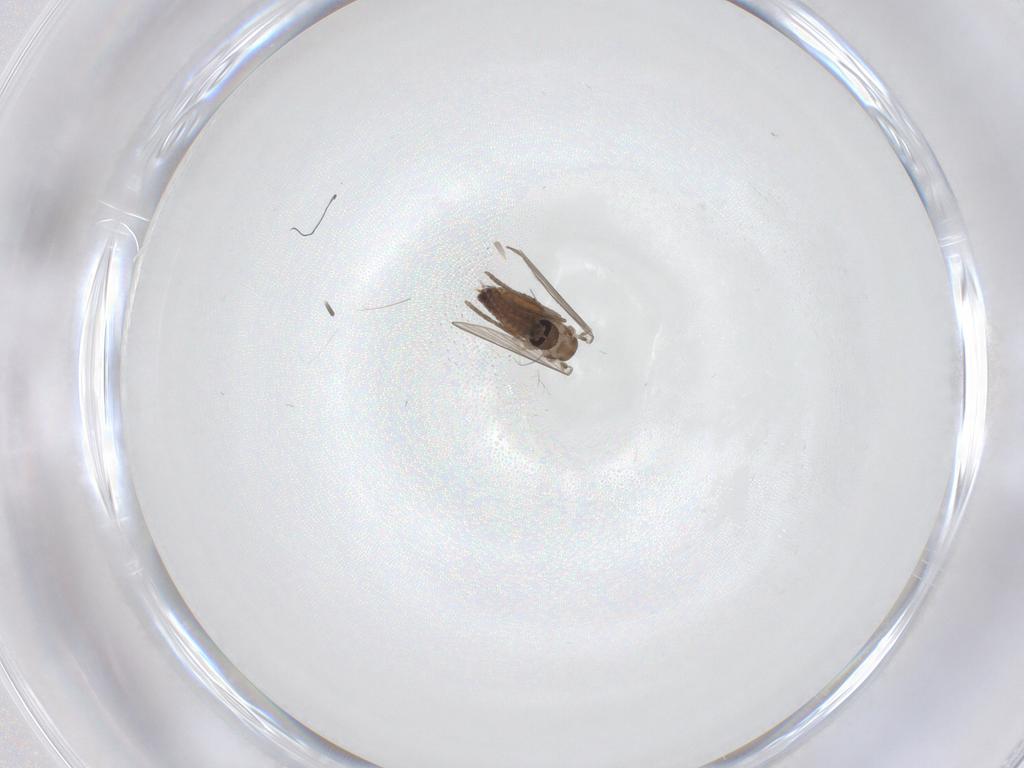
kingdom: Animalia
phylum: Arthropoda
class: Insecta
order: Diptera
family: Psychodidae
